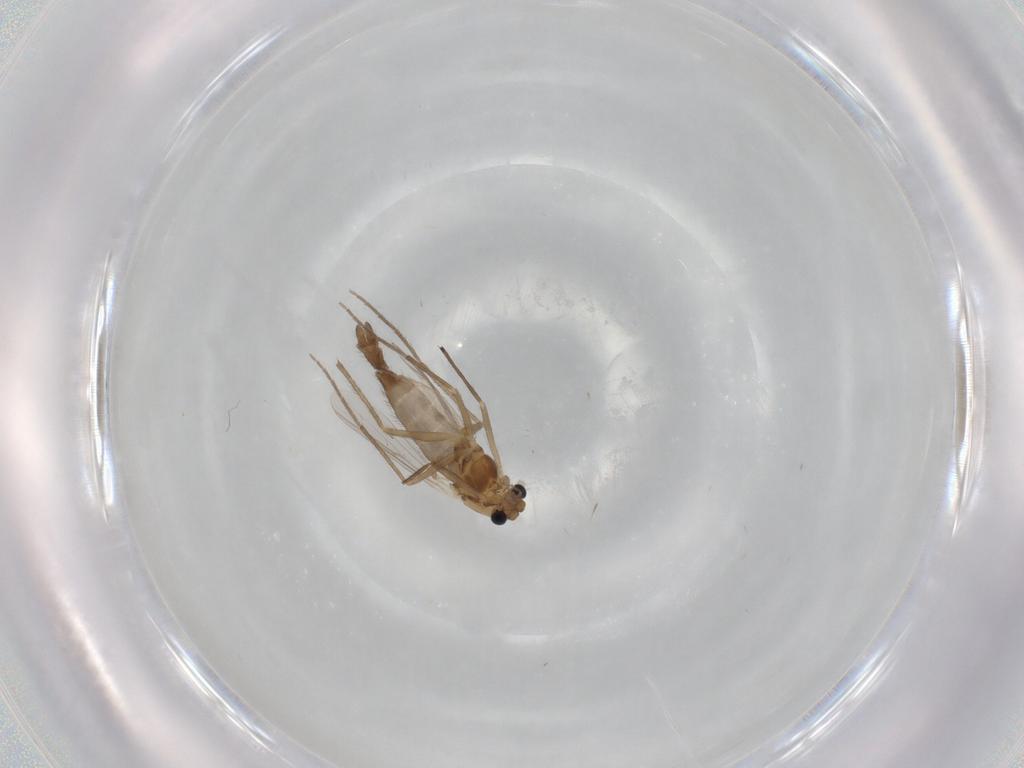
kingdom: Animalia
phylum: Arthropoda
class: Insecta
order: Diptera
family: Chironomidae
